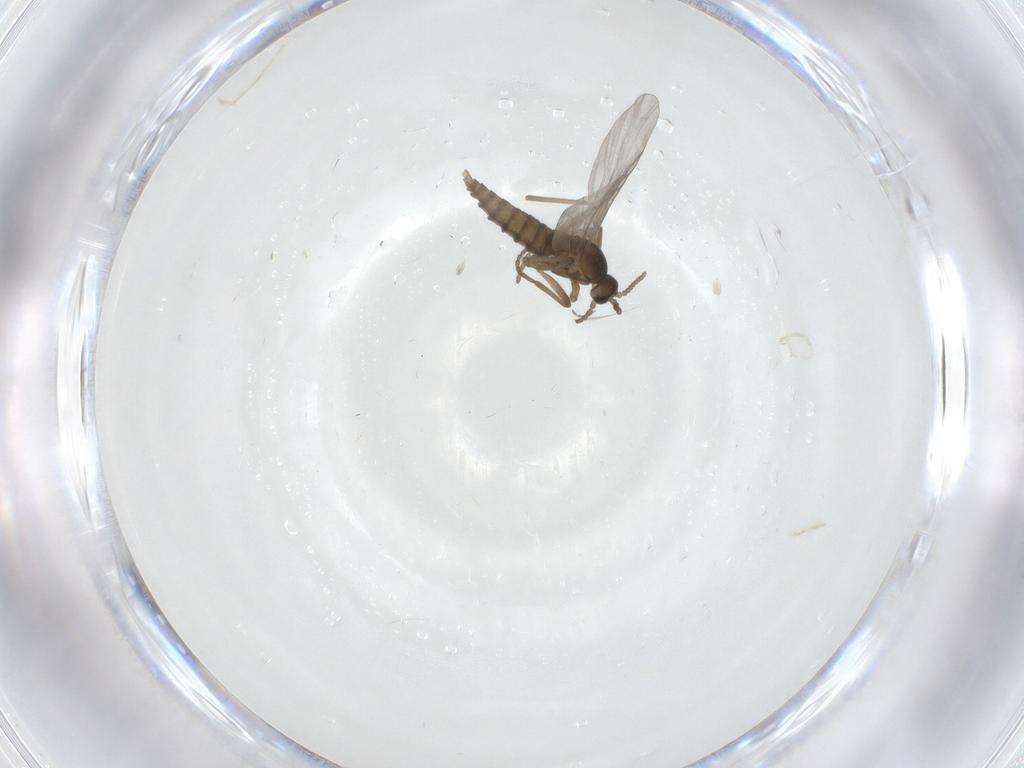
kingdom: Animalia
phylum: Arthropoda
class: Insecta
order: Diptera
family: Cecidomyiidae
